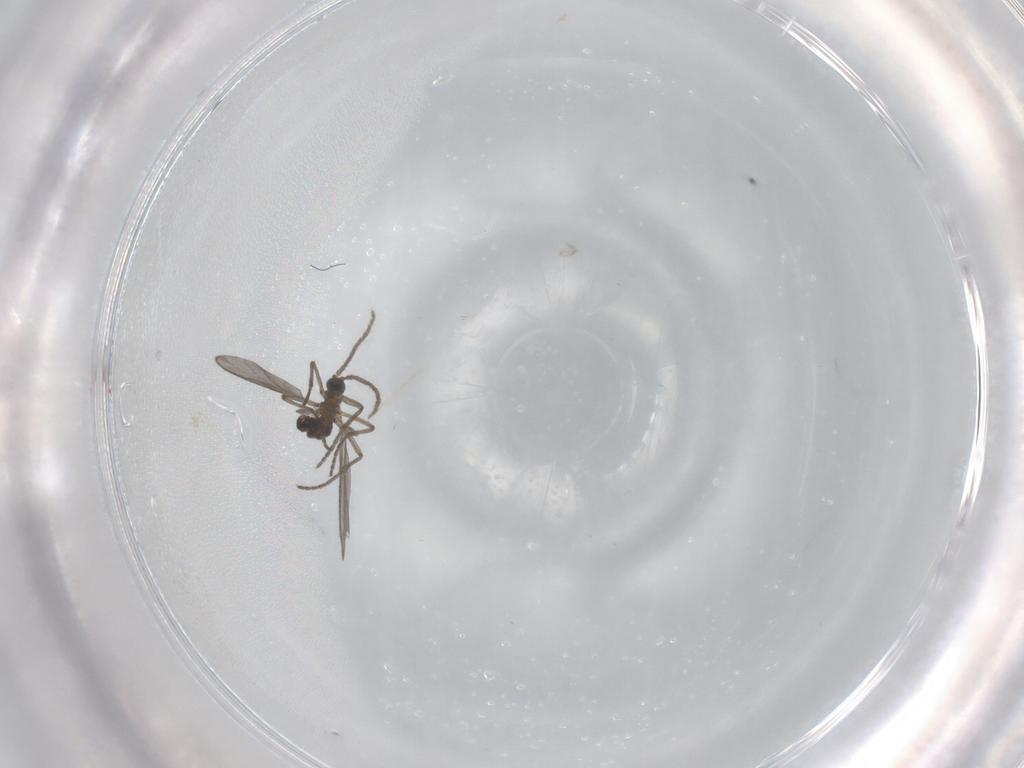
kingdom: Animalia
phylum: Arthropoda
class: Insecta
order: Diptera
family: Sciaridae
